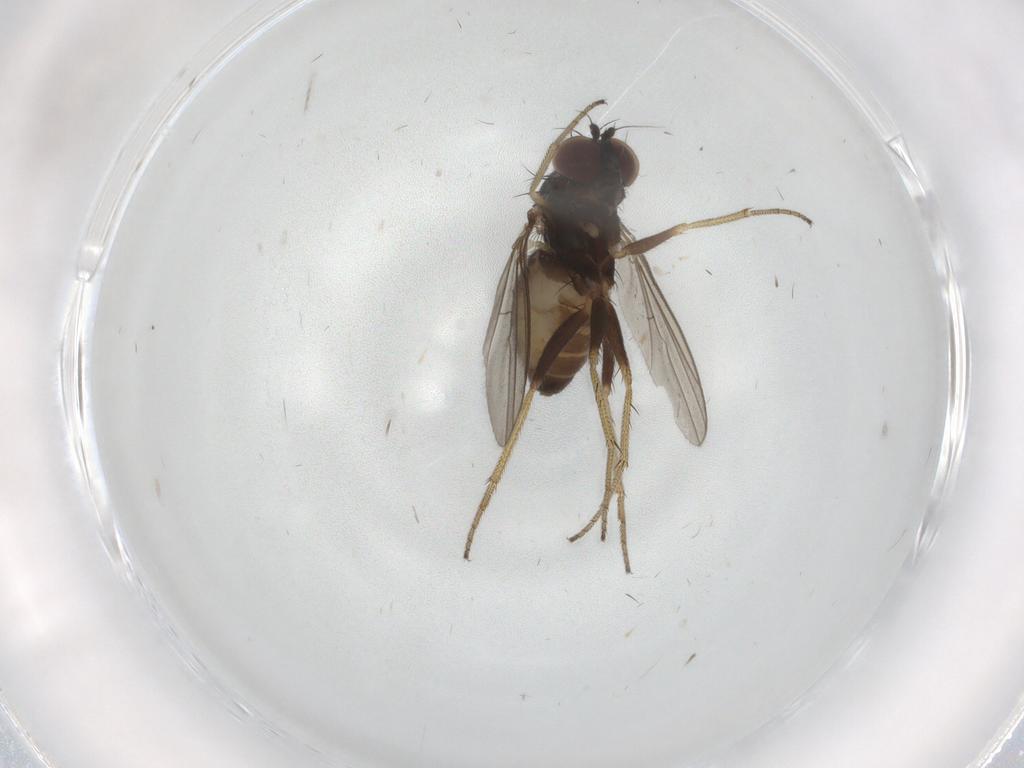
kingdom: Animalia
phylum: Arthropoda
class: Insecta
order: Diptera
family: Dolichopodidae
